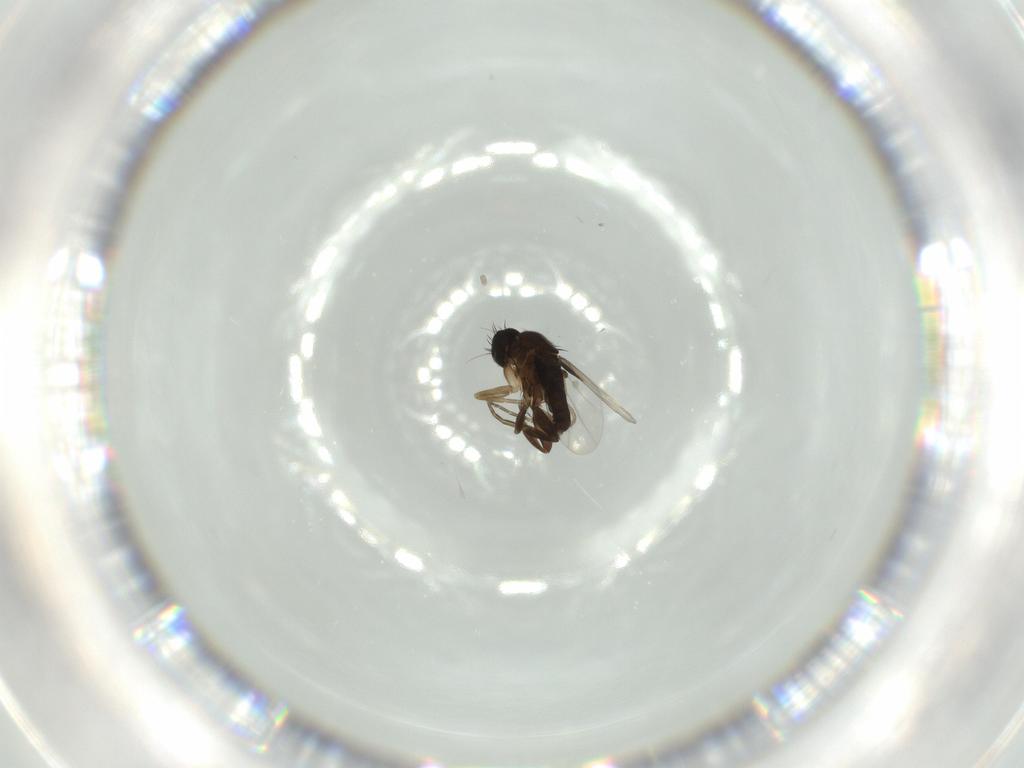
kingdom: Animalia
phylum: Arthropoda
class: Insecta
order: Diptera
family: Phoridae
